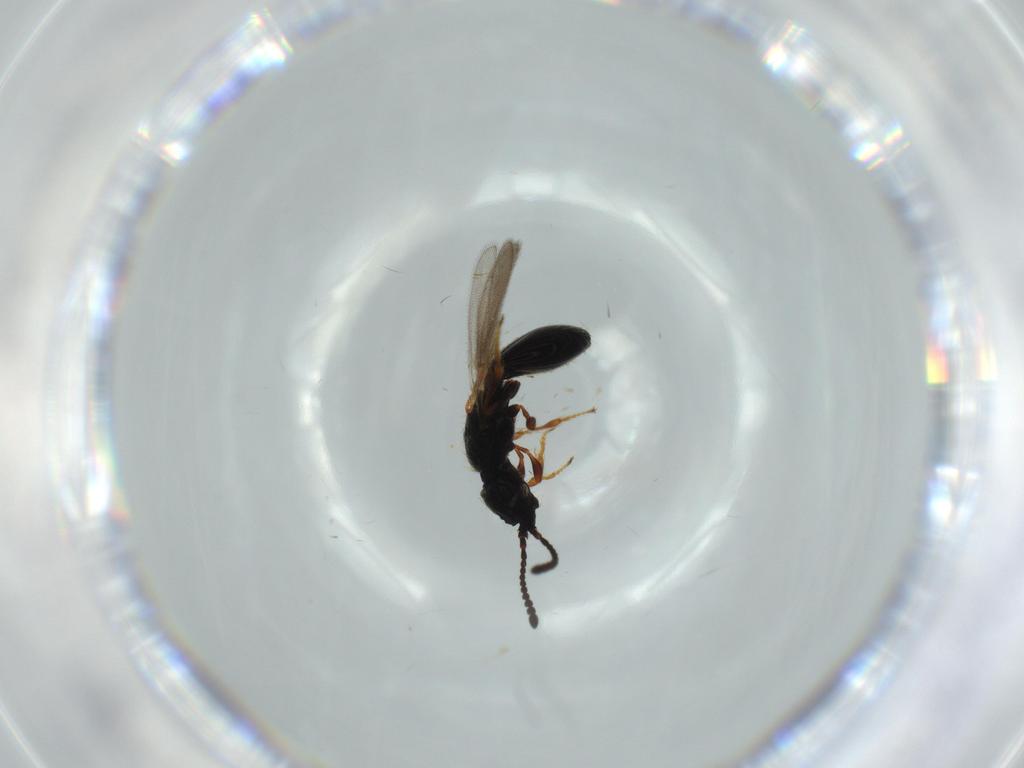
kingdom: Animalia
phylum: Arthropoda
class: Insecta
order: Hymenoptera
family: Diapriidae
